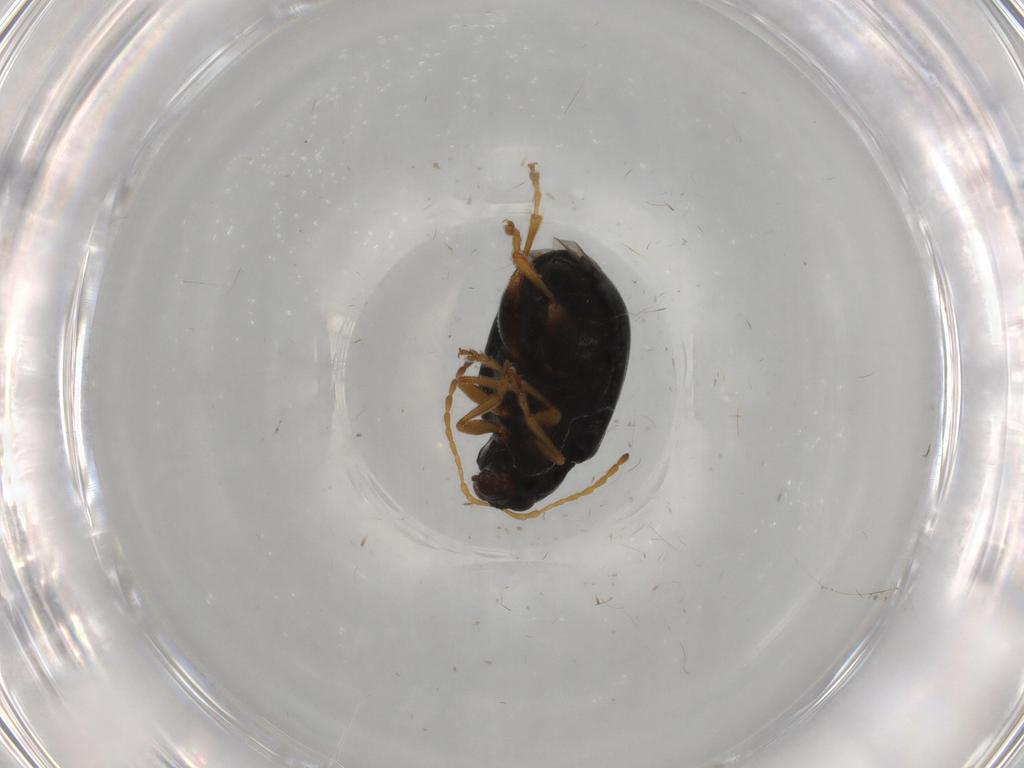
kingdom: Animalia
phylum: Arthropoda
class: Insecta
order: Coleoptera
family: Chrysomelidae
